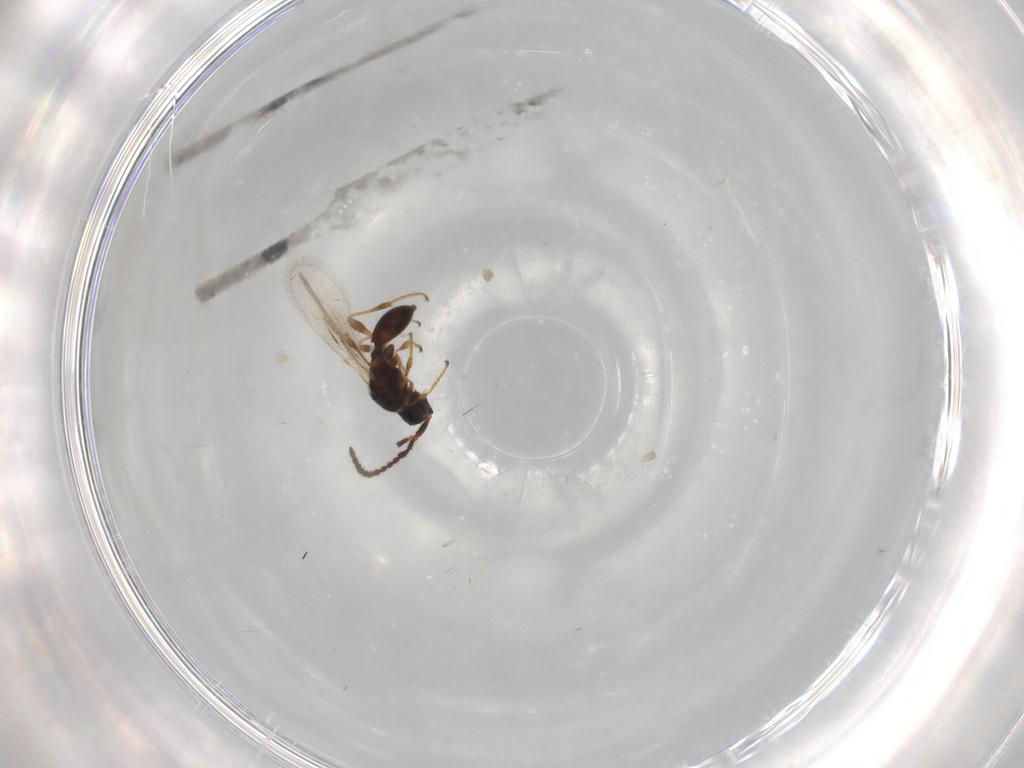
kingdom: Animalia
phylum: Arthropoda
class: Insecta
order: Hymenoptera
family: Diapriidae
